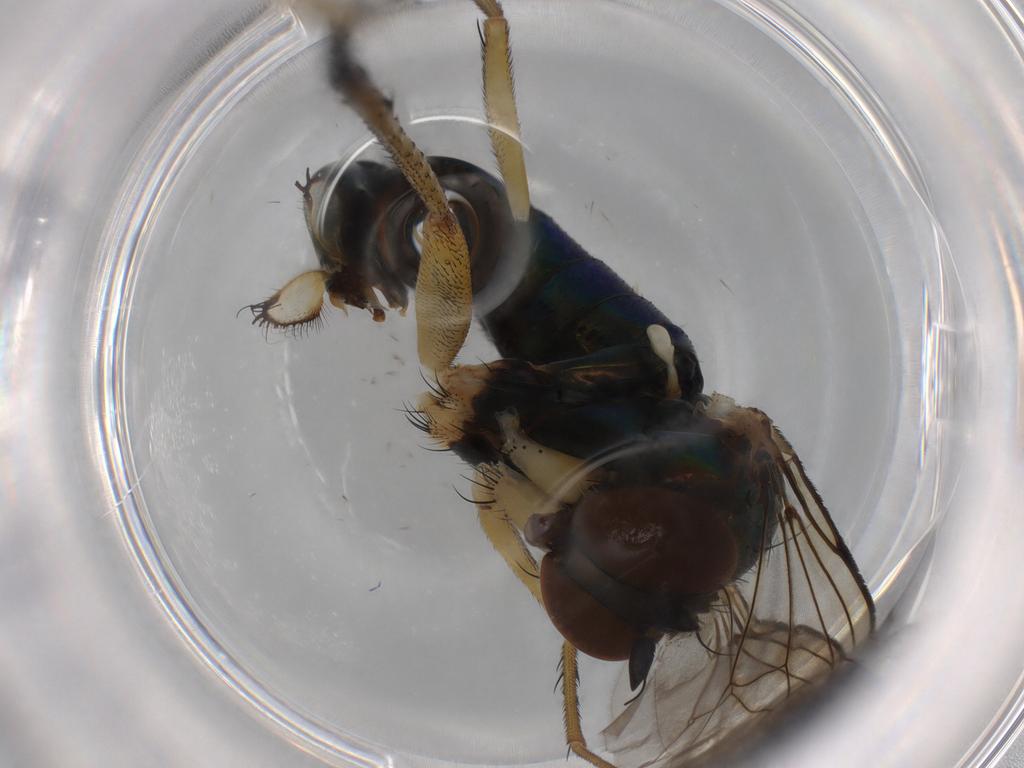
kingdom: Animalia
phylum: Arthropoda
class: Insecta
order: Diptera
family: Dolichopodidae
